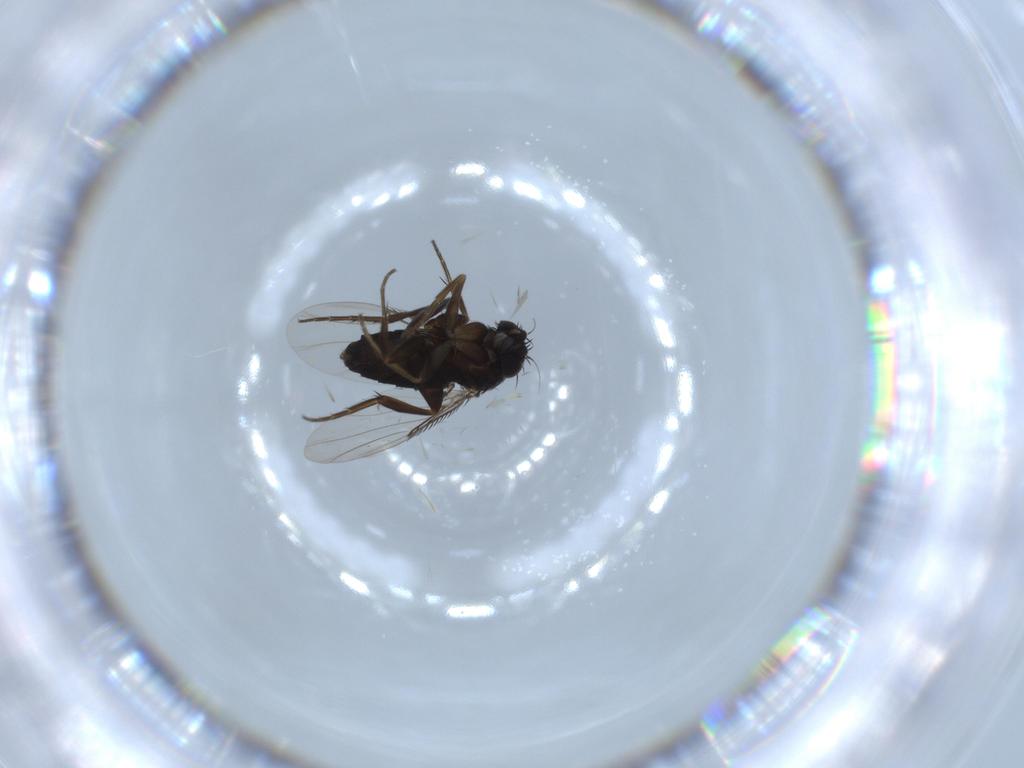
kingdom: Animalia
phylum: Arthropoda
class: Insecta
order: Diptera
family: Phoridae
